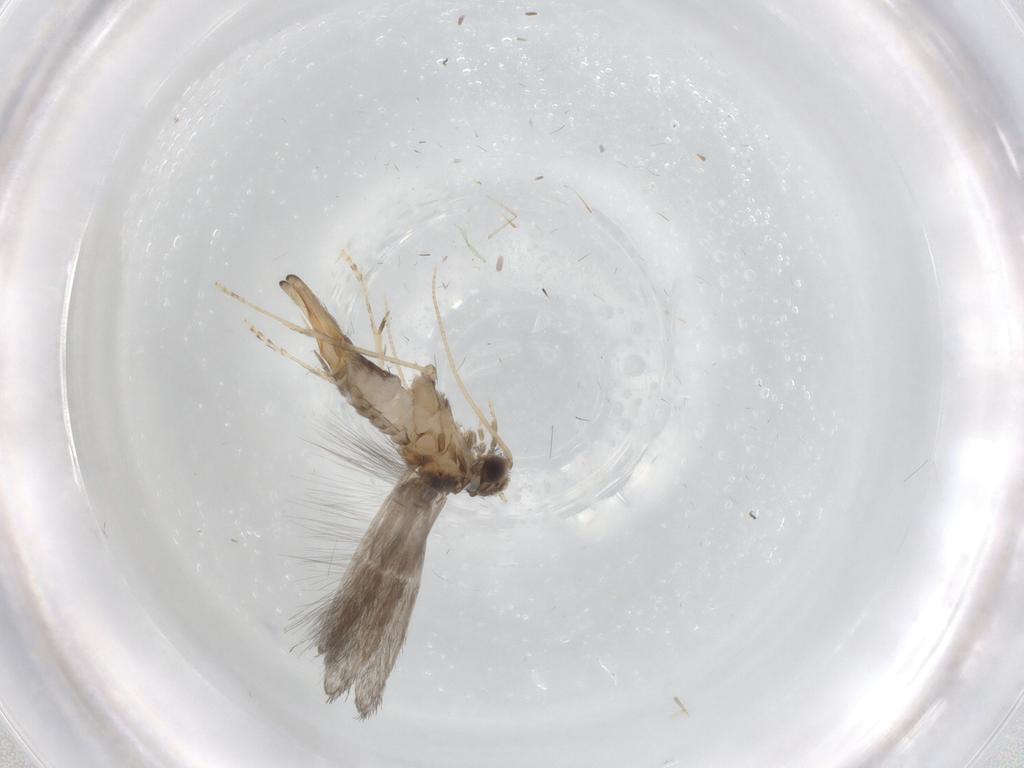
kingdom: Animalia
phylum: Arthropoda
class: Insecta
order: Trichoptera
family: Hydroptilidae
